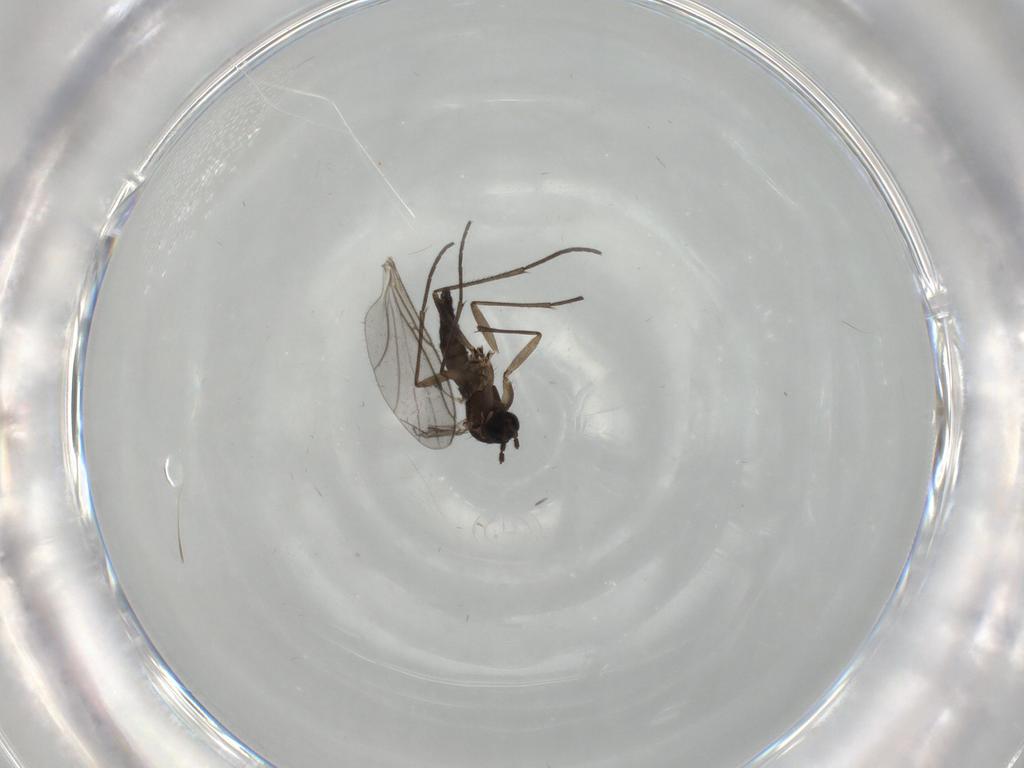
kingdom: Animalia
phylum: Arthropoda
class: Insecta
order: Diptera
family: Sciaridae
